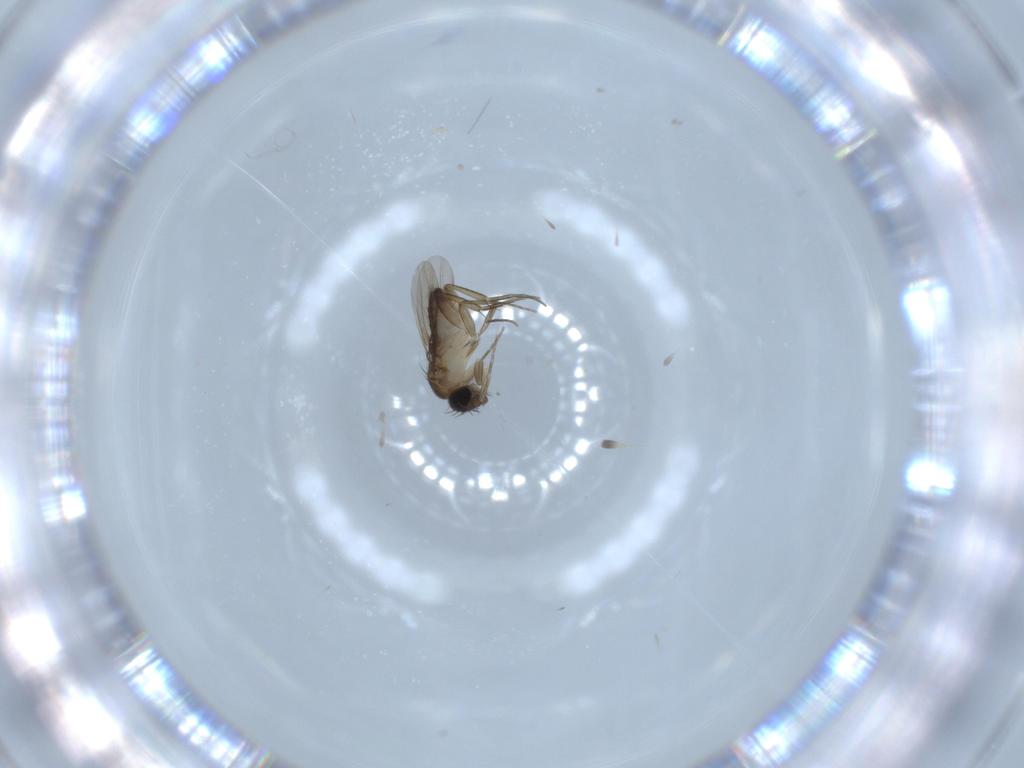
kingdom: Animalia
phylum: Arthropoda
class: Insecta
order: Diptera
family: Phoridae
